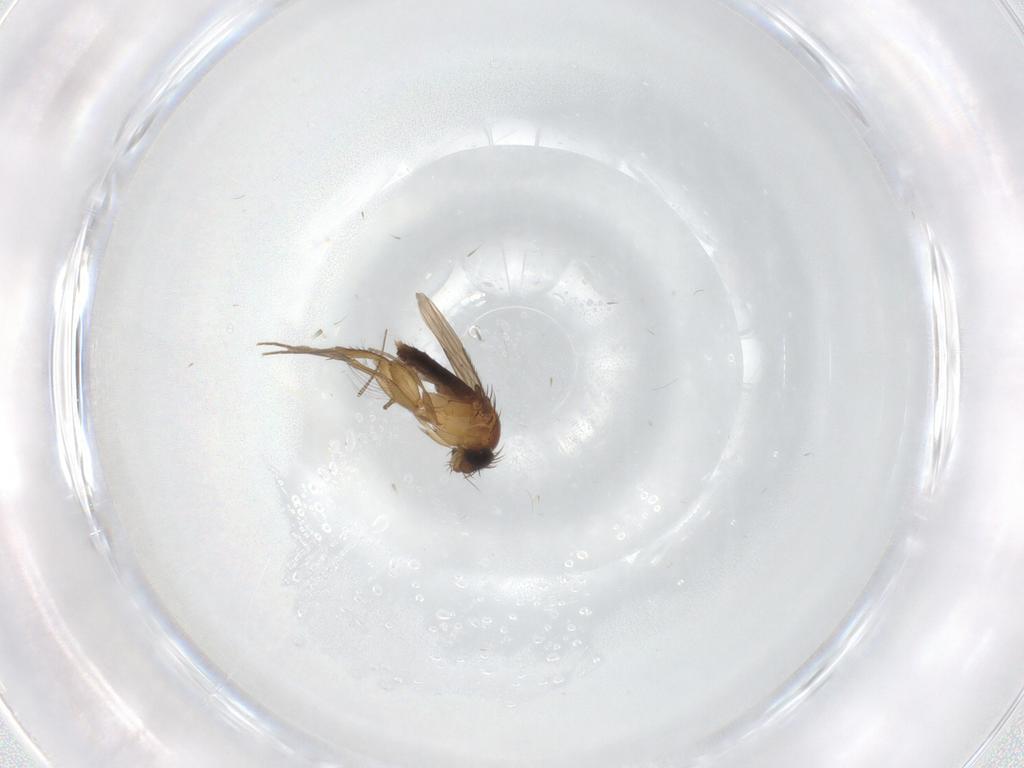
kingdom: Animalia
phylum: Arthropoda
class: Insecta
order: Diptera
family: Phoridae
